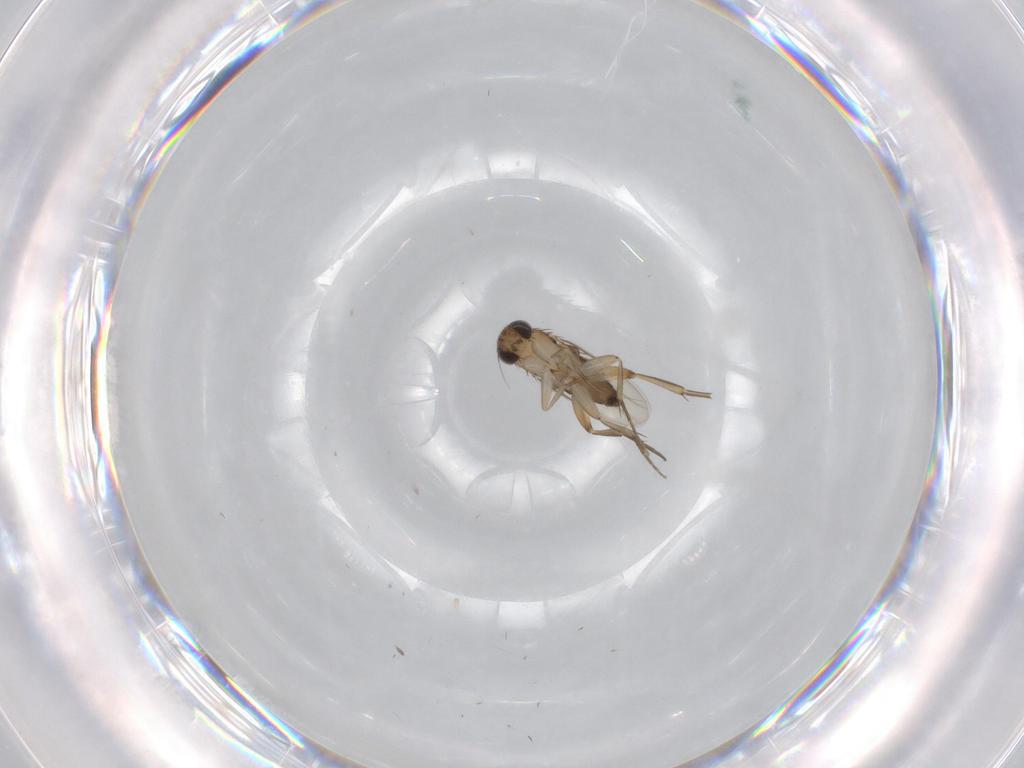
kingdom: Animalia
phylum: Arthropoda
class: Insecta
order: Diptera
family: Phoridae
